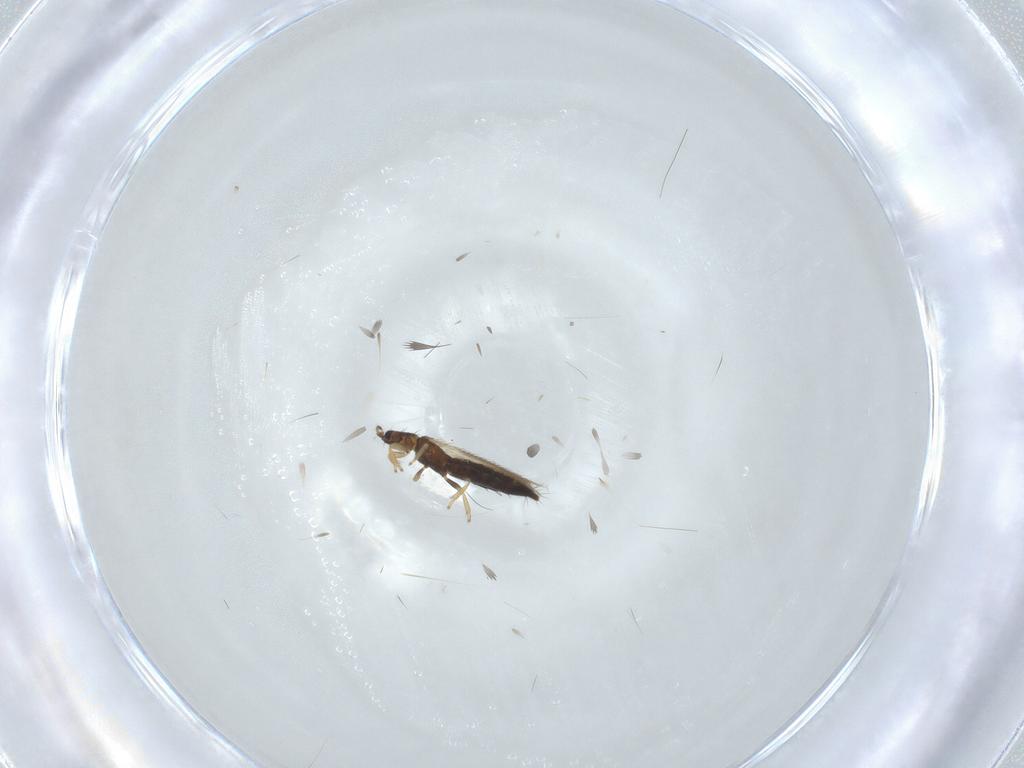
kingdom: Animalia
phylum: Arthropoda
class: Insecta
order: Thysanoptera
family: Thripidae
